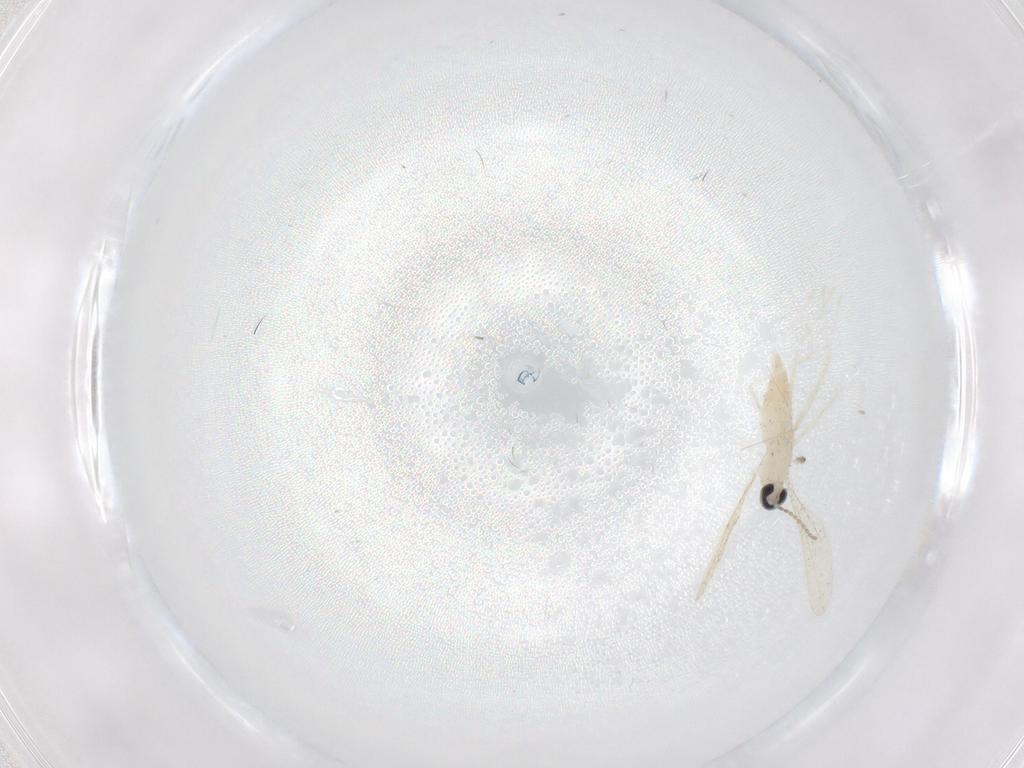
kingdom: Animalia
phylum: Arthropoda
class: Insecta
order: Diptera
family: Cecidomyiidae
